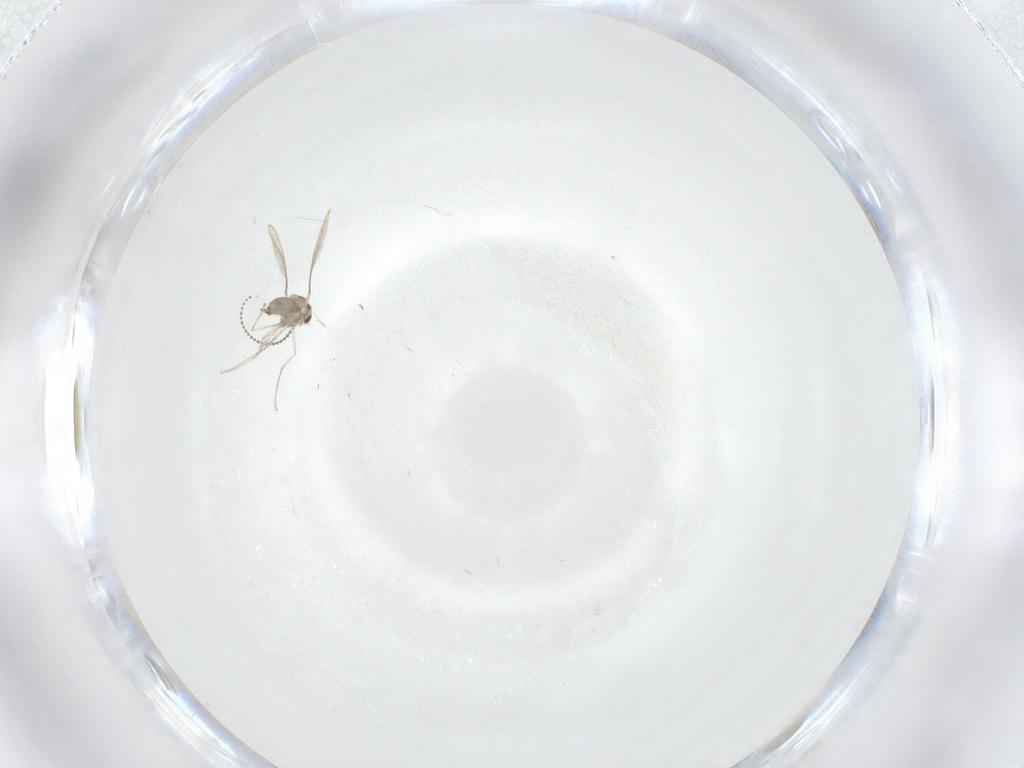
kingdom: Animalia
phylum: Arthropoda
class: Insecta
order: Diptera
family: Cecidomyiidae
